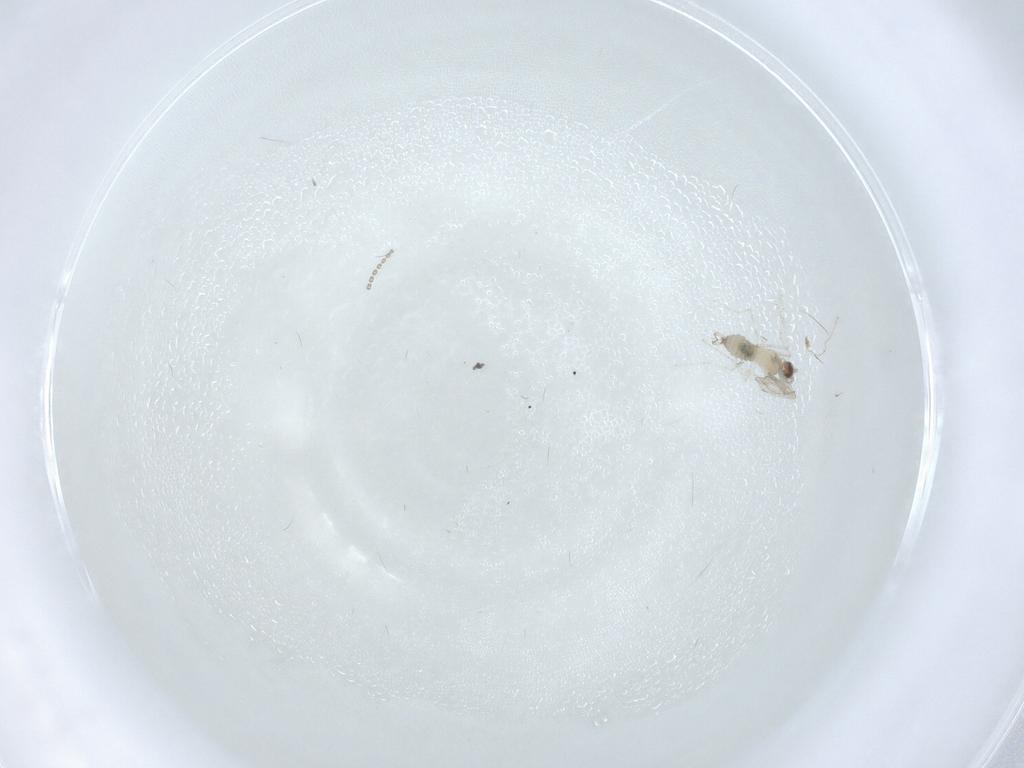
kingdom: Animalia
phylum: Arthropoda
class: Insecta
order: Diptera
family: Cecidomyiidae
